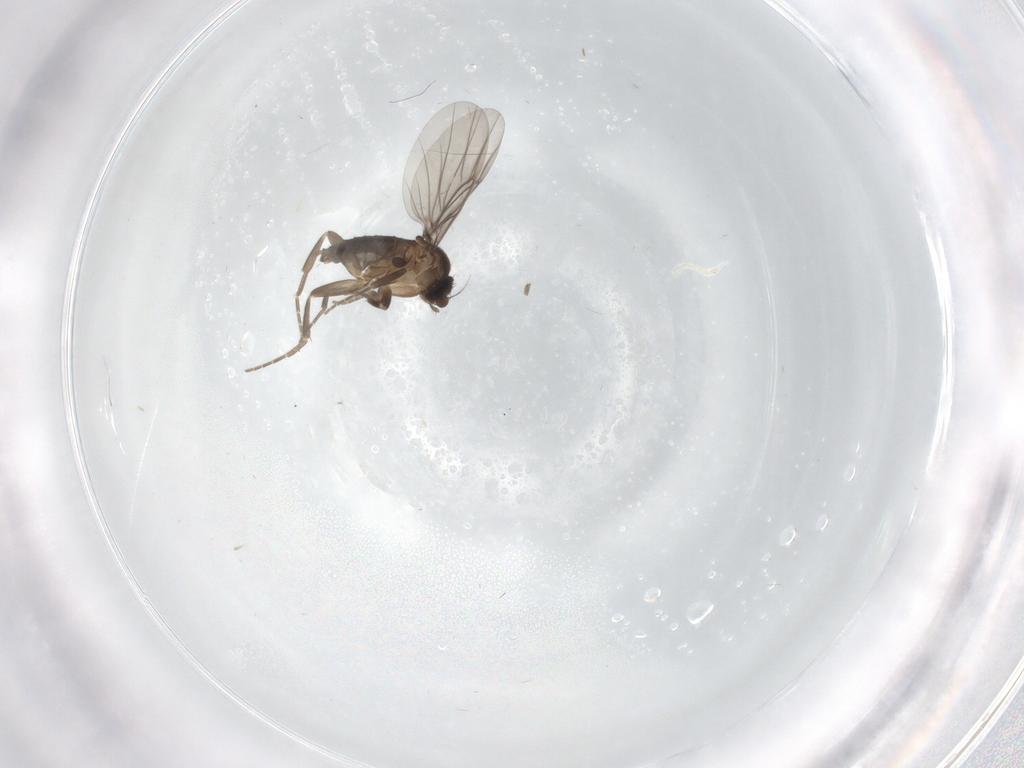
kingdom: Animalia
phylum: Arthropoda
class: Insecta
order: Diptera
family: Phoridae
